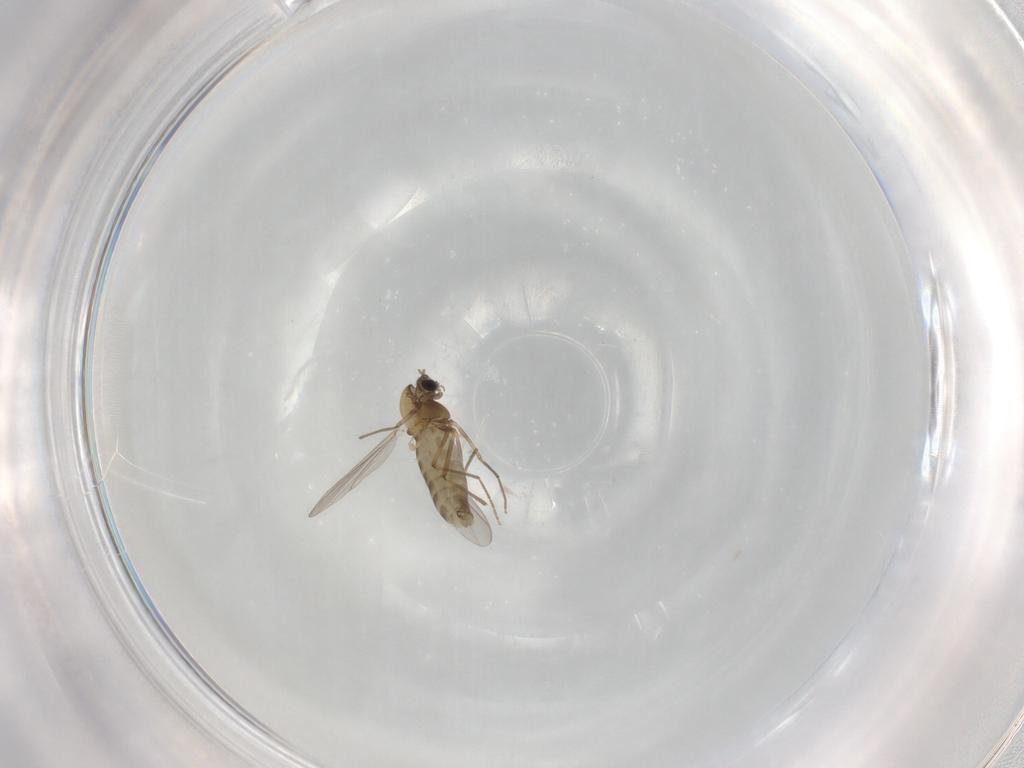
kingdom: Animalia
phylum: Arthropoda
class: Insecta
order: Diptera
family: Chironomidae
